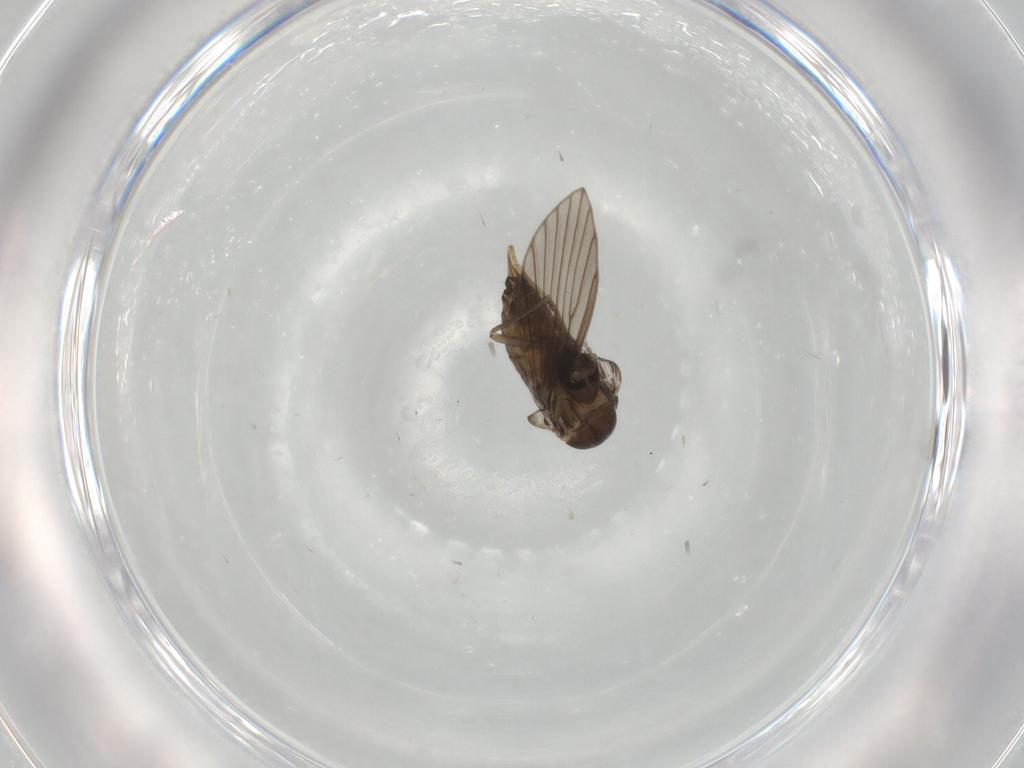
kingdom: Animalia
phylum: Arthropoda
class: Insecta
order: Diptera
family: Psychodidae
